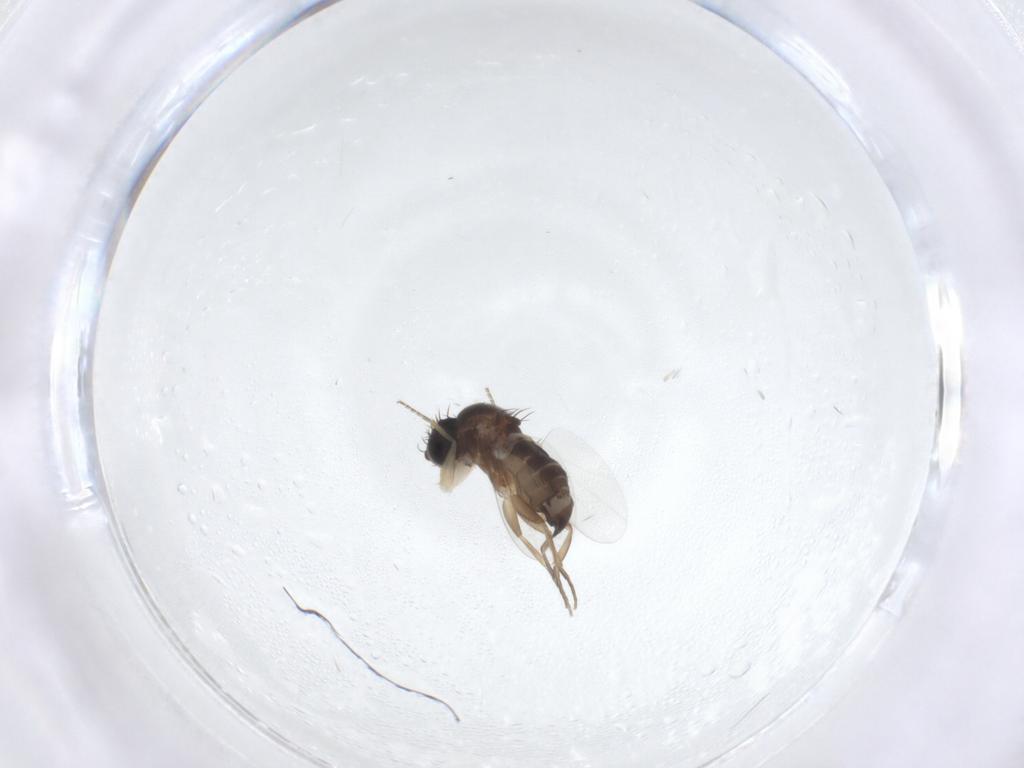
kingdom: Animalia
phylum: Arthropoda
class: Insecta
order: Diptera
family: Phoridae
